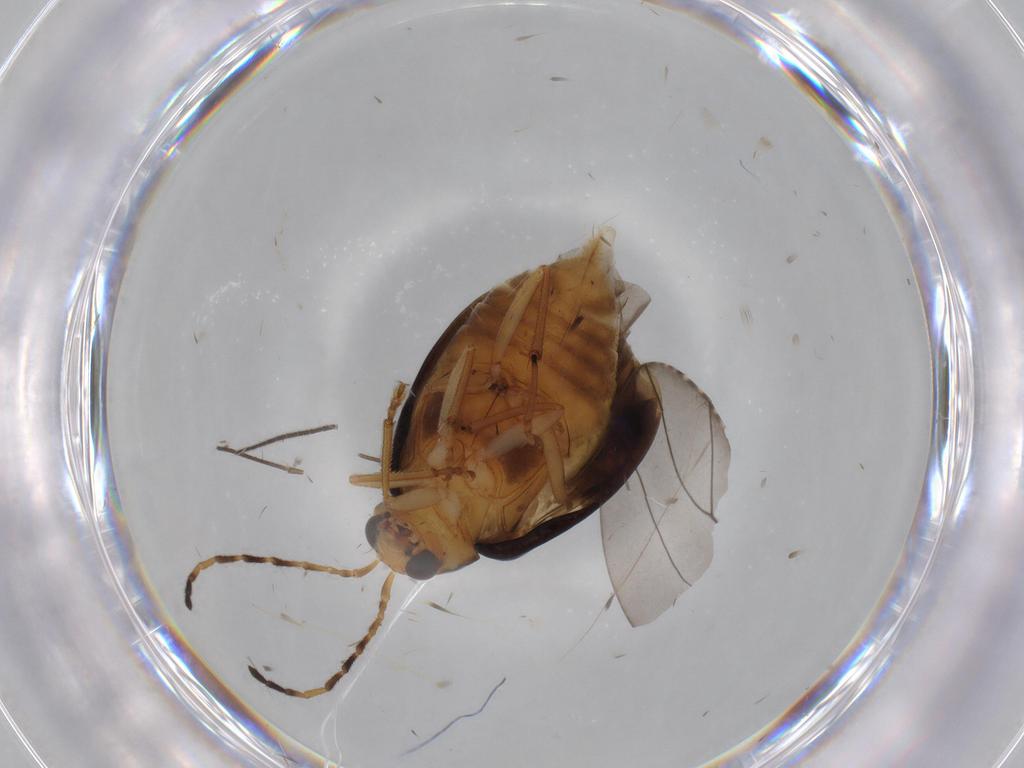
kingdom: Animalia
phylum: Arthropoda
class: Insecta
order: Coleoptera
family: Chrysomelidae
